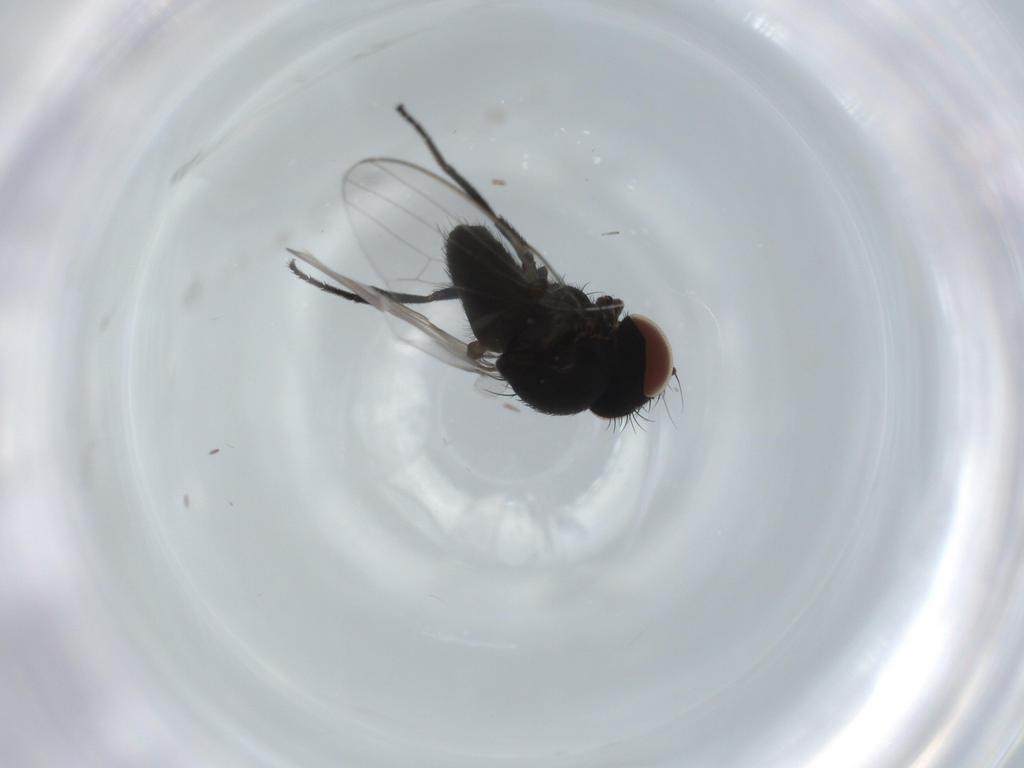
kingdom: Animalia
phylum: Arthropoda
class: Insecta
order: Diptera
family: Milichiidae
